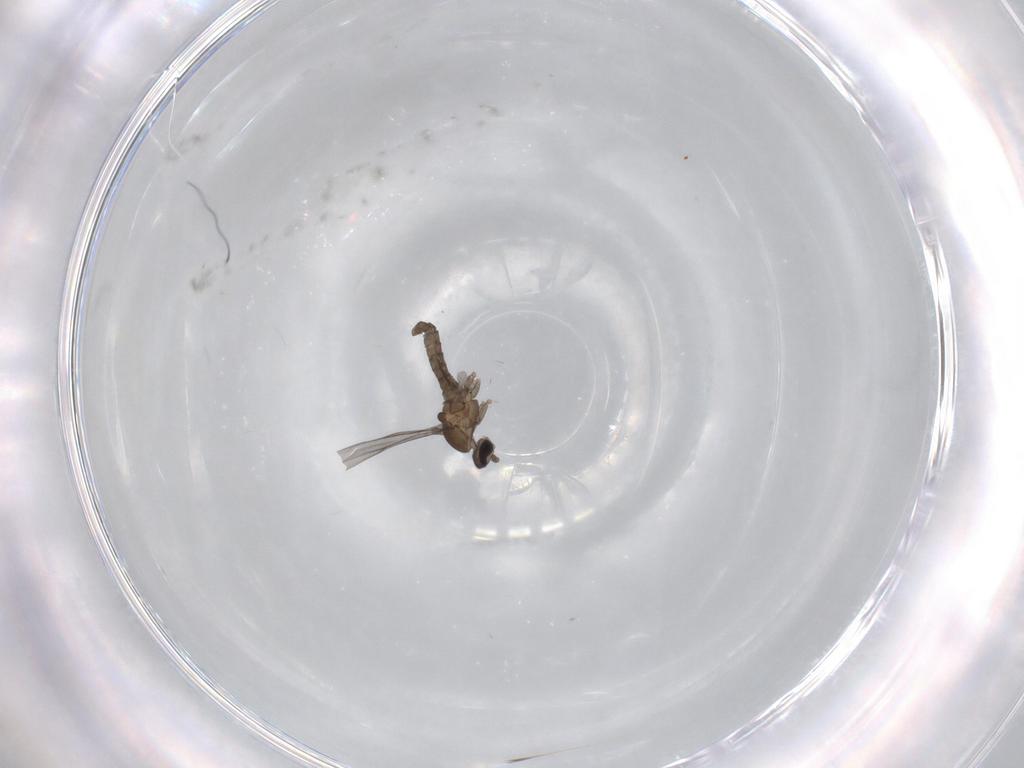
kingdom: Animalia
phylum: Arthropoda
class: Insecta
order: Diptera
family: Cecidomyiidae
